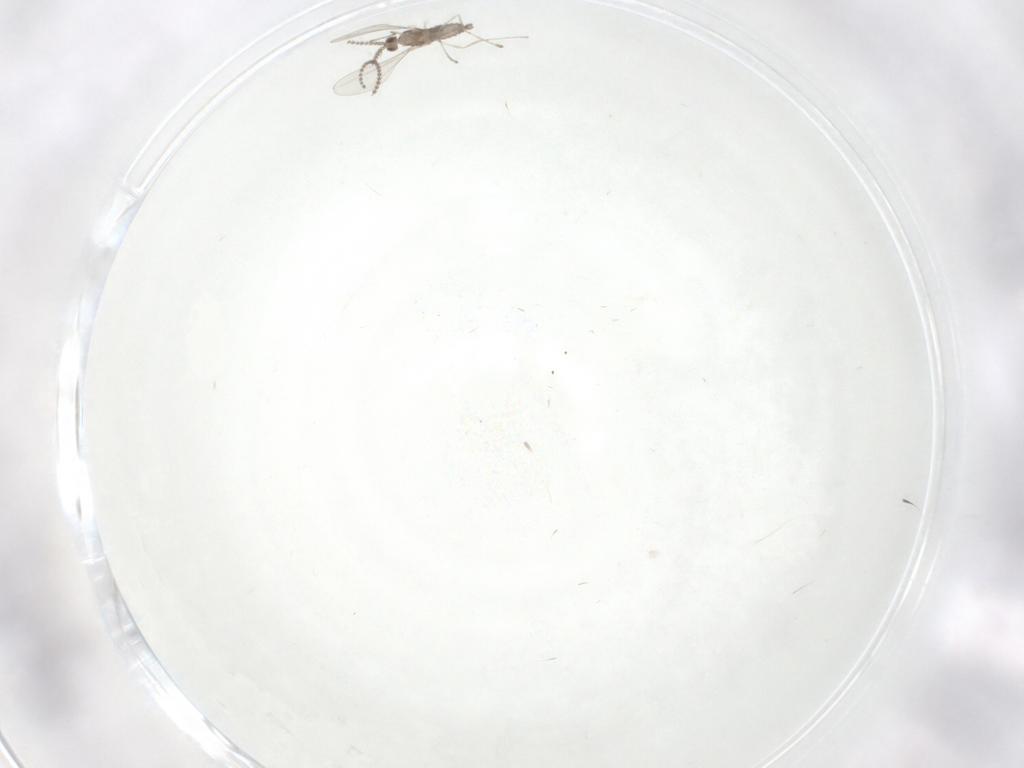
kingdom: Animalia
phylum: Arthropoda
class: Insecta
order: Diptera
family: Cecidomyiidae
